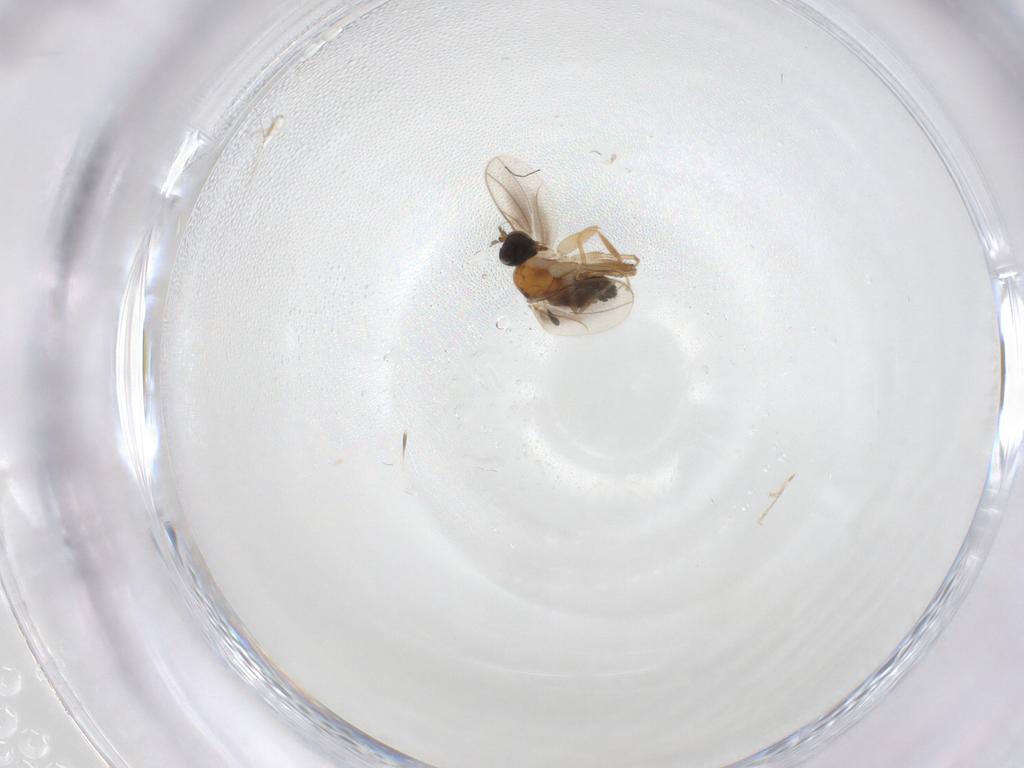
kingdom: Animalia
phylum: Arthropoda
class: Insecta
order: Diptera
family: Hybotidae
